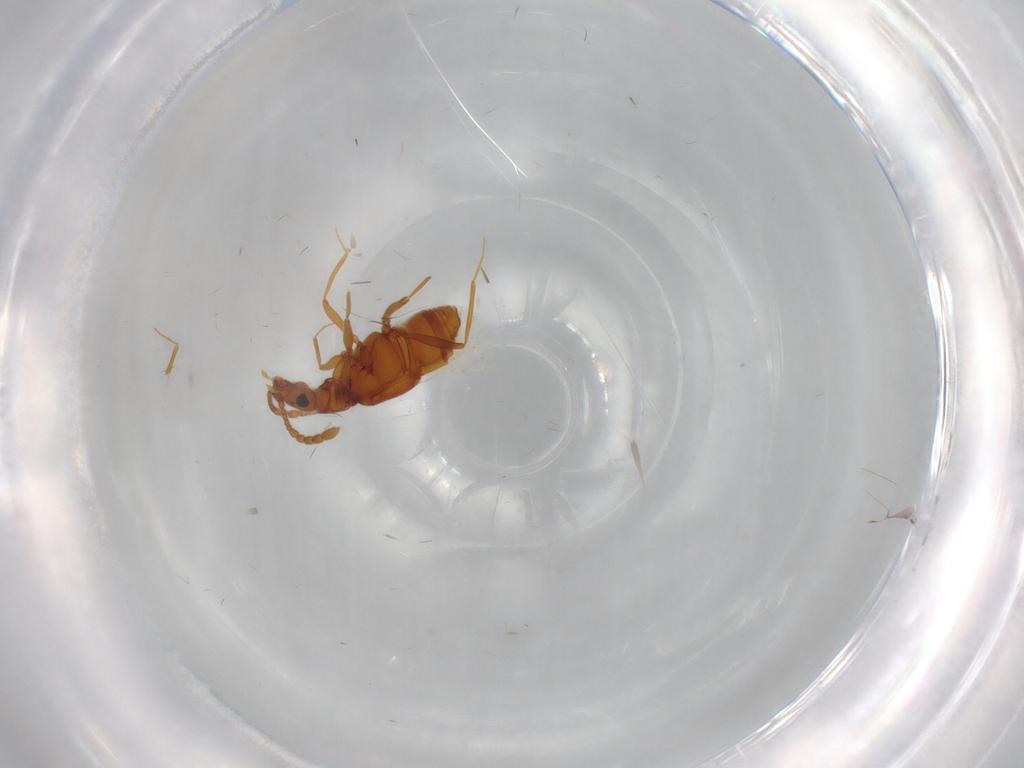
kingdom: Animalia
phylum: Arthropoda
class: Insecta
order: Coleoptera
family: Staphylinidae
